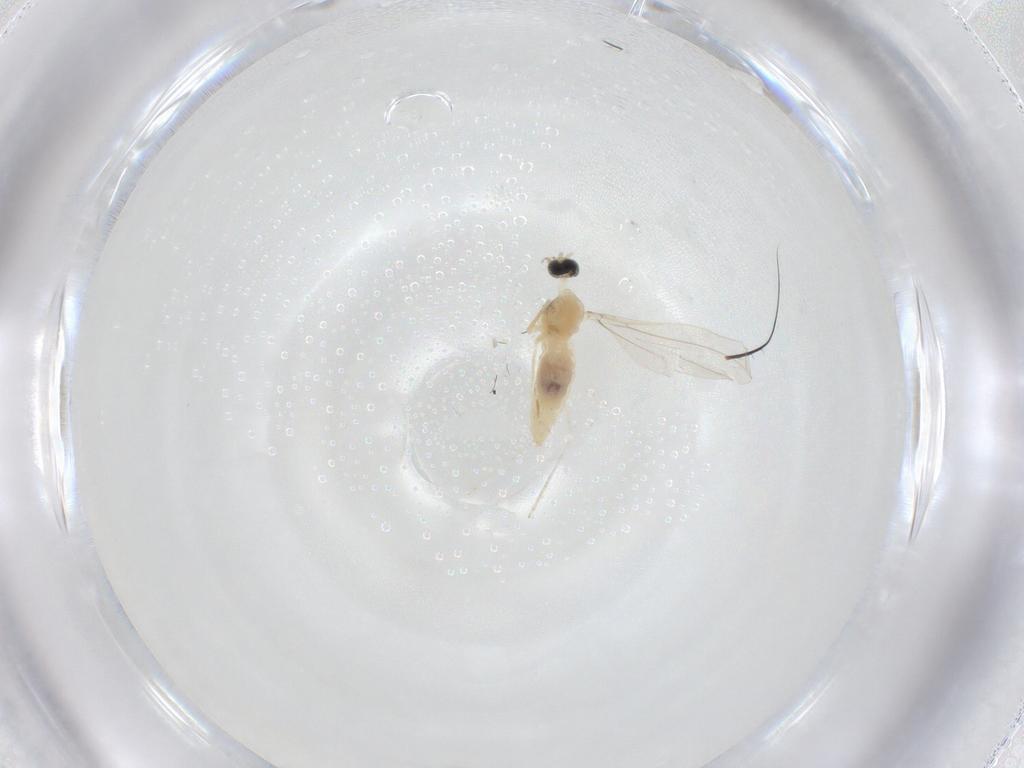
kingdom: Animalia
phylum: Arthropoda
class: Insecta
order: Diptera
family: Cecidomyiidae
